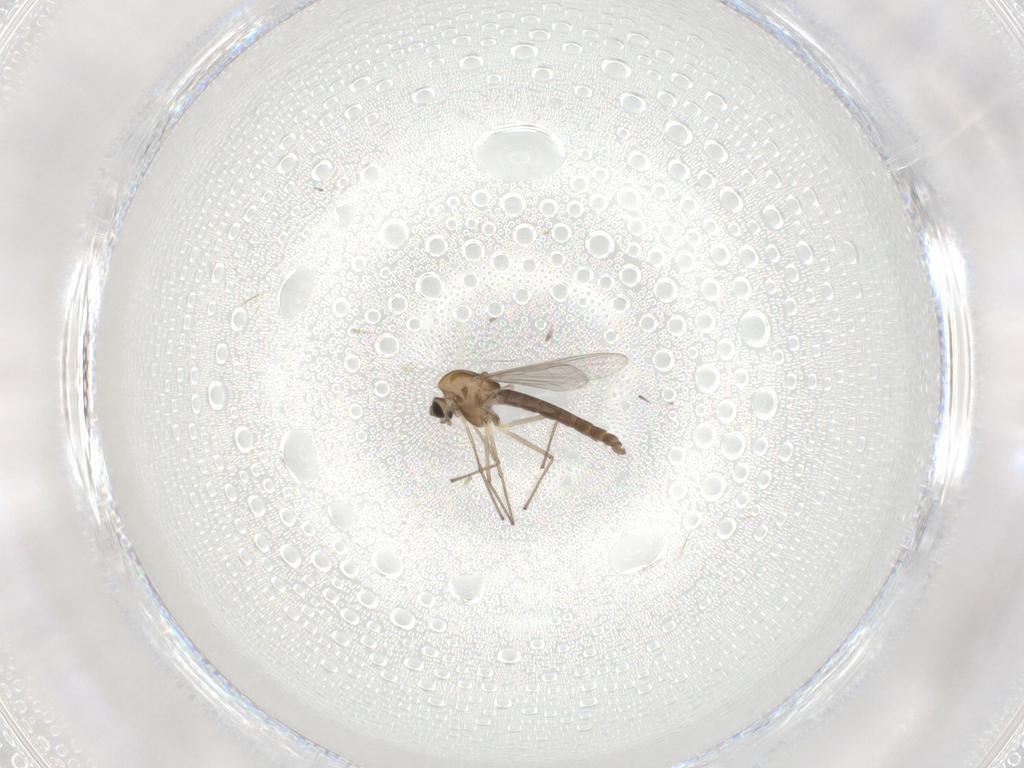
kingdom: Animalia
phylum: Arthropoda
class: Insecta
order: Diptera
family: Chironomidae
